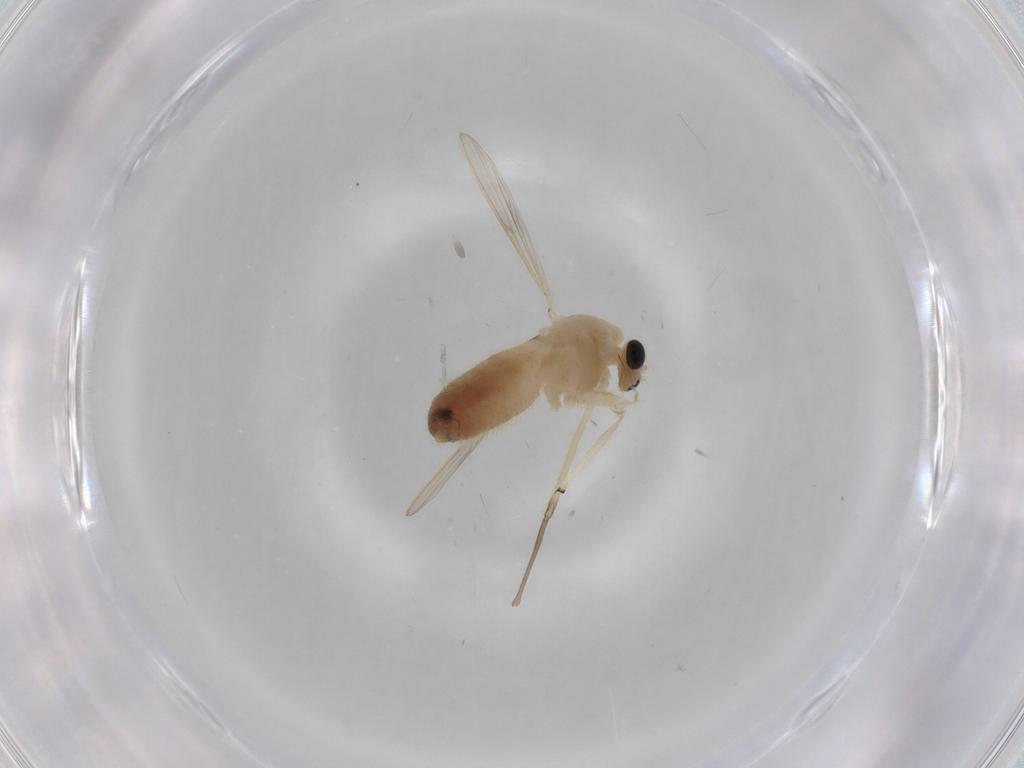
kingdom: Animalia
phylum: Arthropoda
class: Insecta
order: Diptera
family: Chironomidae
